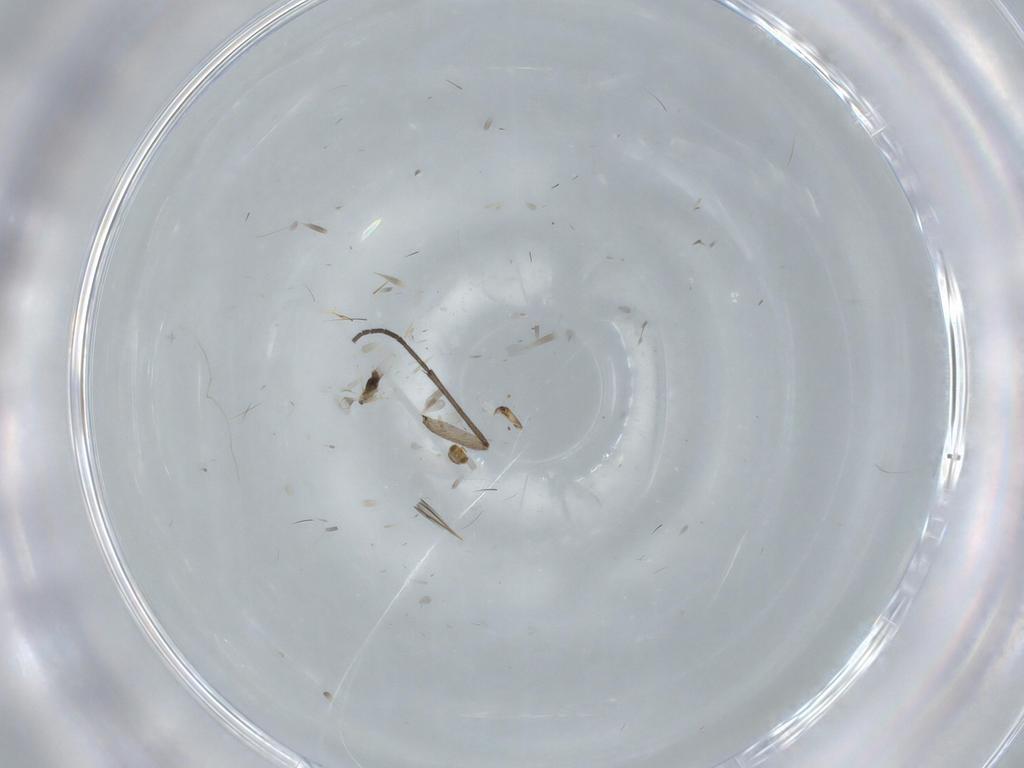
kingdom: Animalia
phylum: Arthropoda
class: Insecta
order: Hymenoptera
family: Aphelinidae
